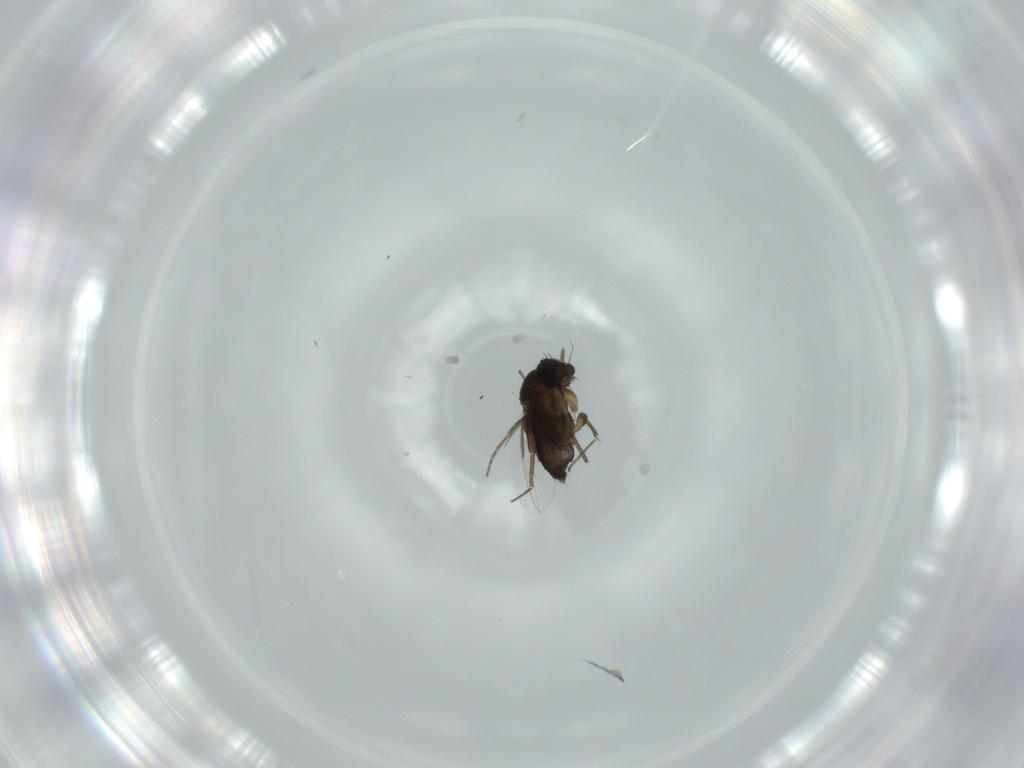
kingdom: Animalia
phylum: Arthropoda
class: Insecta
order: Diptera
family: Phoridae
